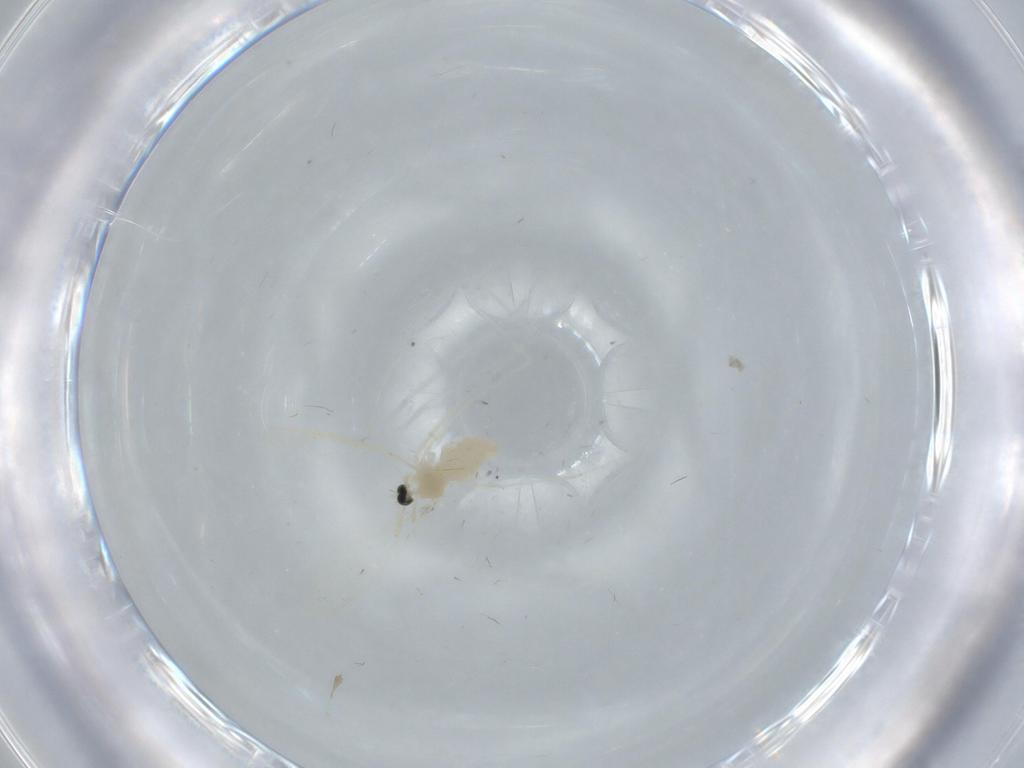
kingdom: Animalia
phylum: Arthropoda
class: Insecta
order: Diptera
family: Cecidomyiidae
